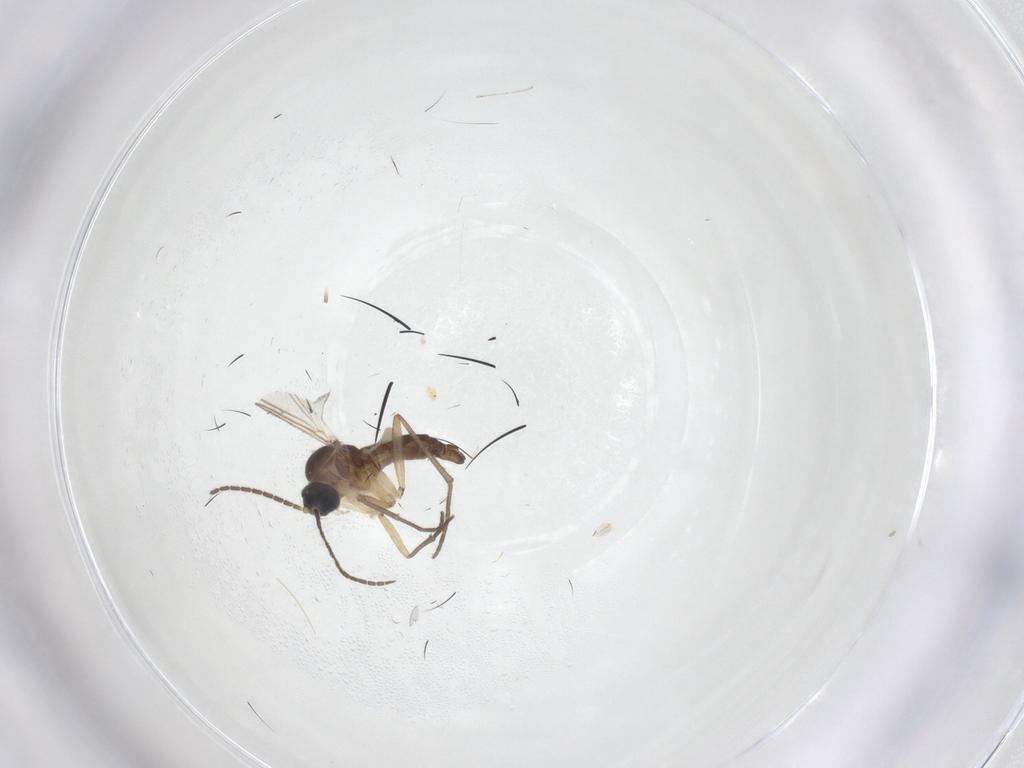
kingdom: Animalia
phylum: Arthropoda
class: Insecta
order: Diptera
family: Sciaridae
